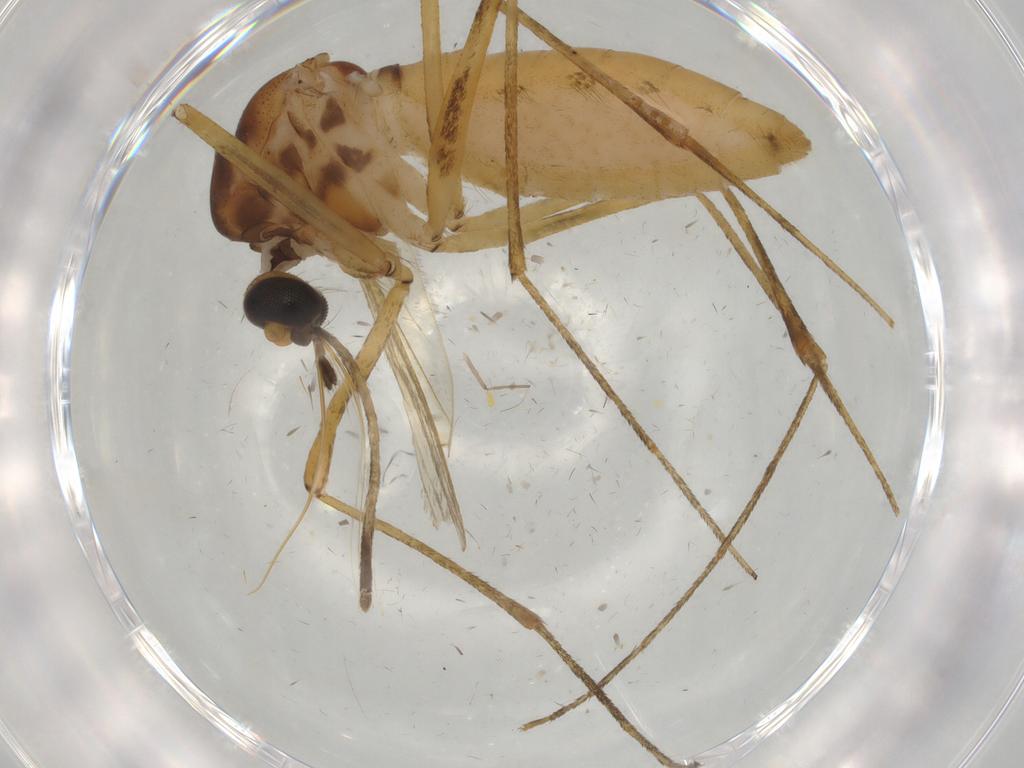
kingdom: Animalia
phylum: Arthropoda
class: Insecta
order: Diptera
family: Culicidae
